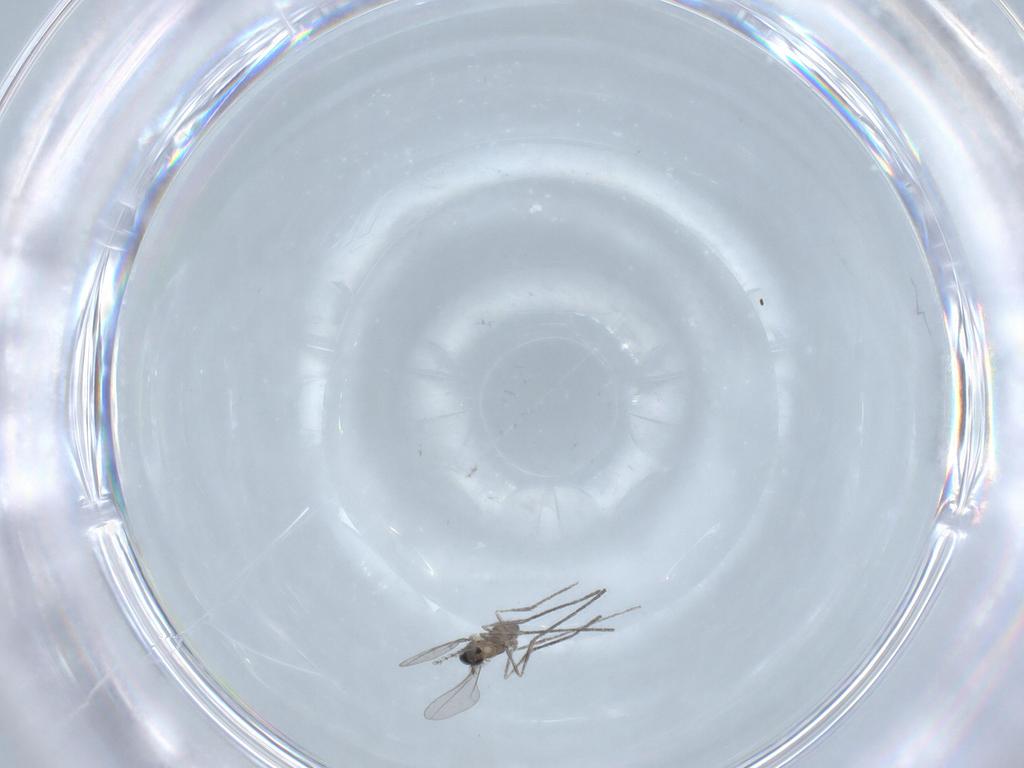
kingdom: Animalia
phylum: Arthropoda
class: Insecta
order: Diptera
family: Cecidomyiidae
